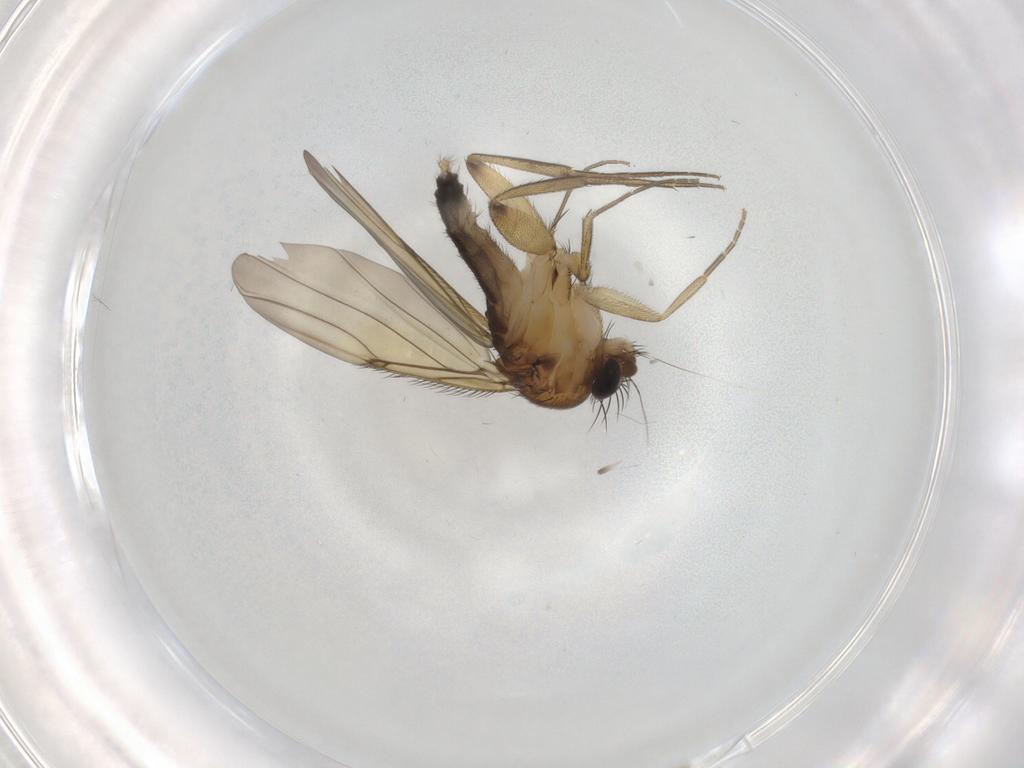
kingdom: Animalia
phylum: Arthropoda
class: Insecta
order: Diptera
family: Phoridae
